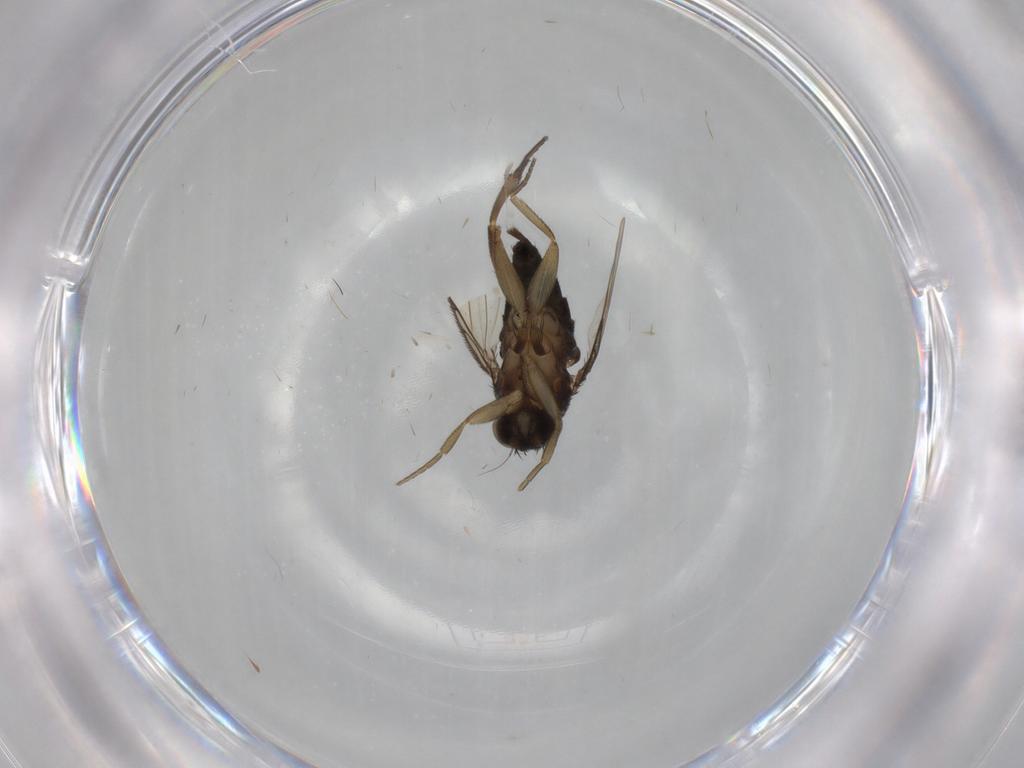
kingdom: Animalia
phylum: Arthropoda
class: Insecta
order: Diptera
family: Phoridae
